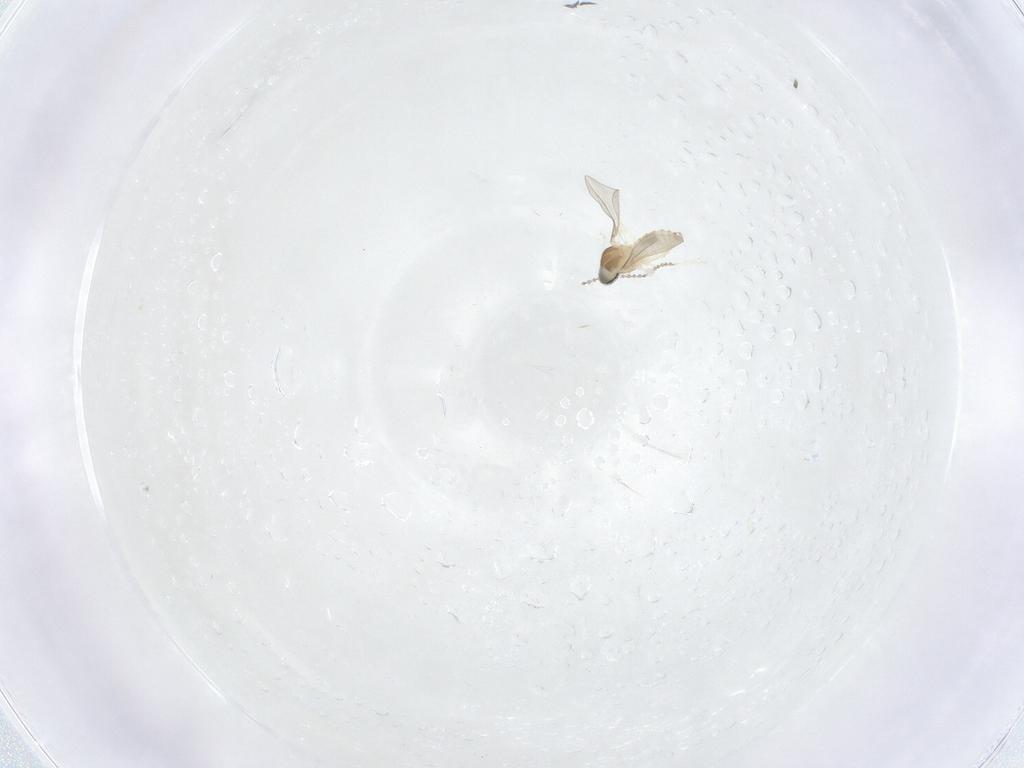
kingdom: Animalia
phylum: Arthropoda
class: Insecta
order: Diptera
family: Cecidomyiidae
